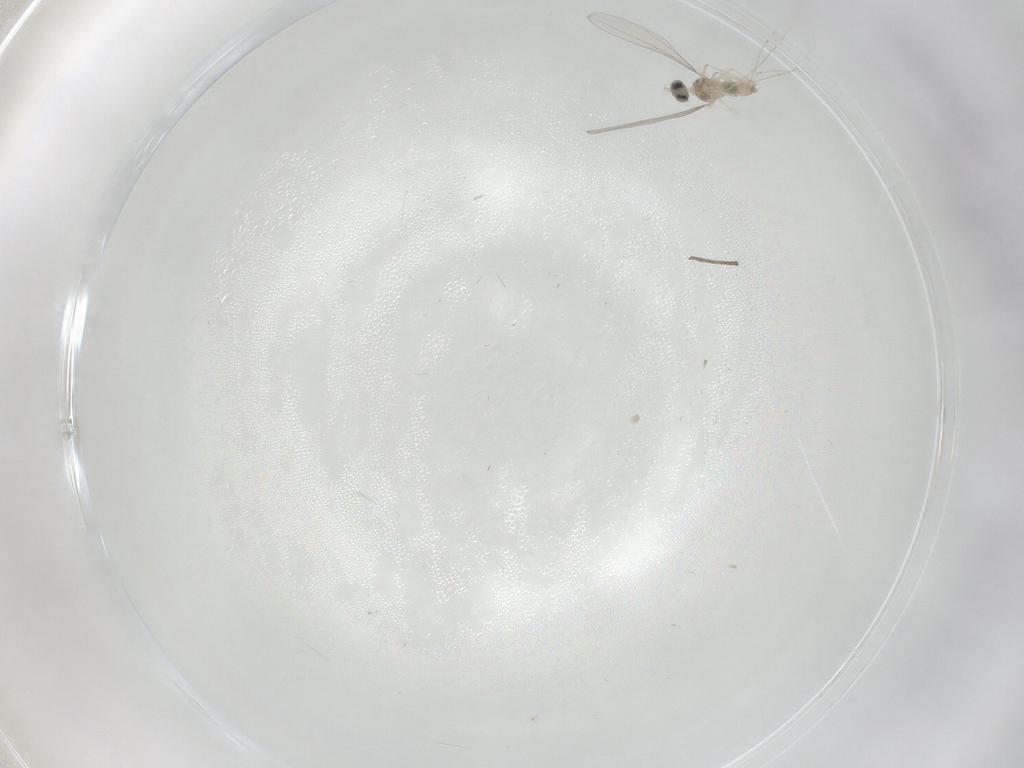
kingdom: Animalia
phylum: Arthropoda
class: Insecta
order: Diptera
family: Cecidomyiidae
